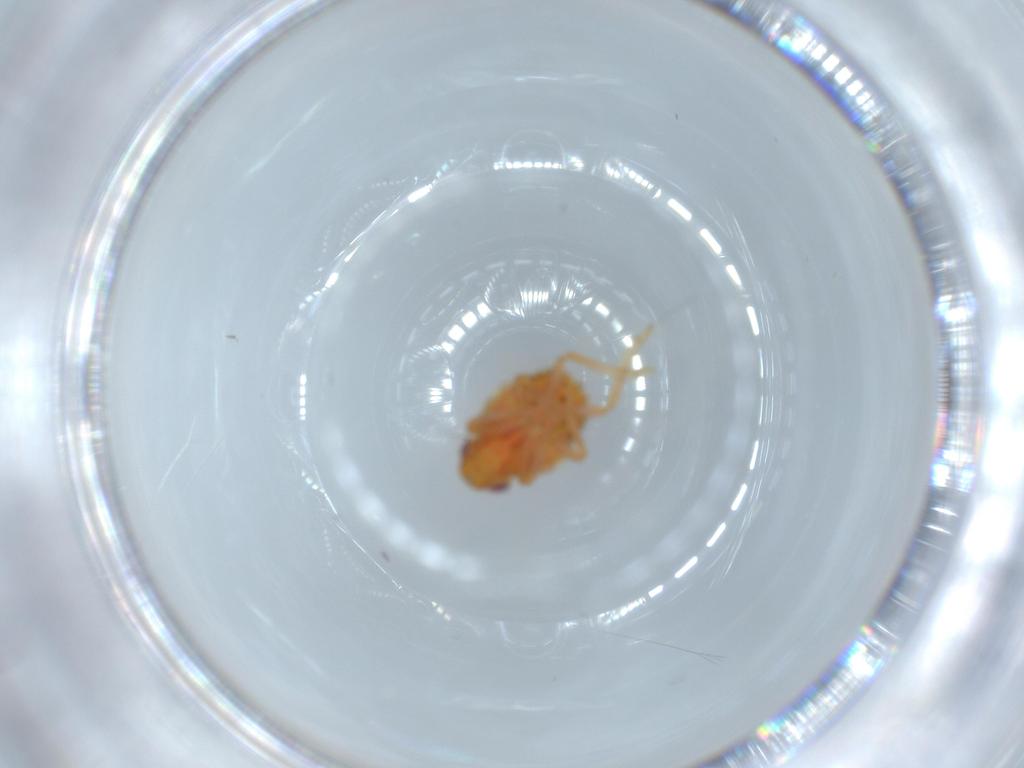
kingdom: Animalia
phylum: Arthropoda
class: Insecta
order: Hemiptera
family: Issidae
